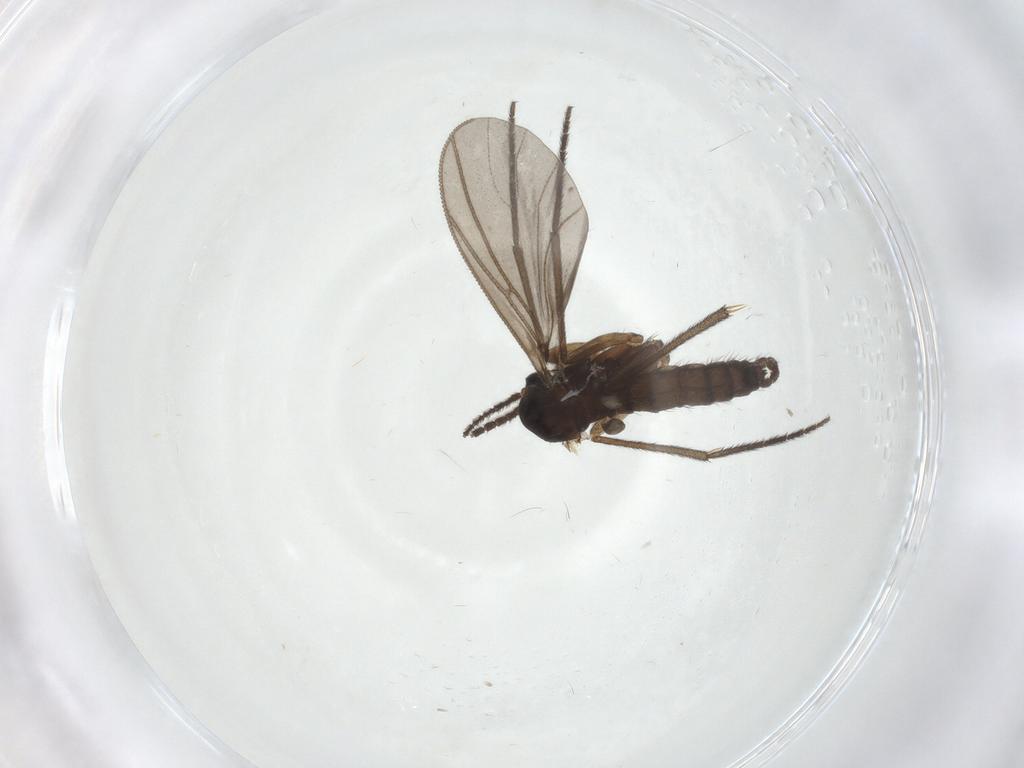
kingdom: Animalia
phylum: Arthropoda
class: Insecta
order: Diptera
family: Sciaridae
